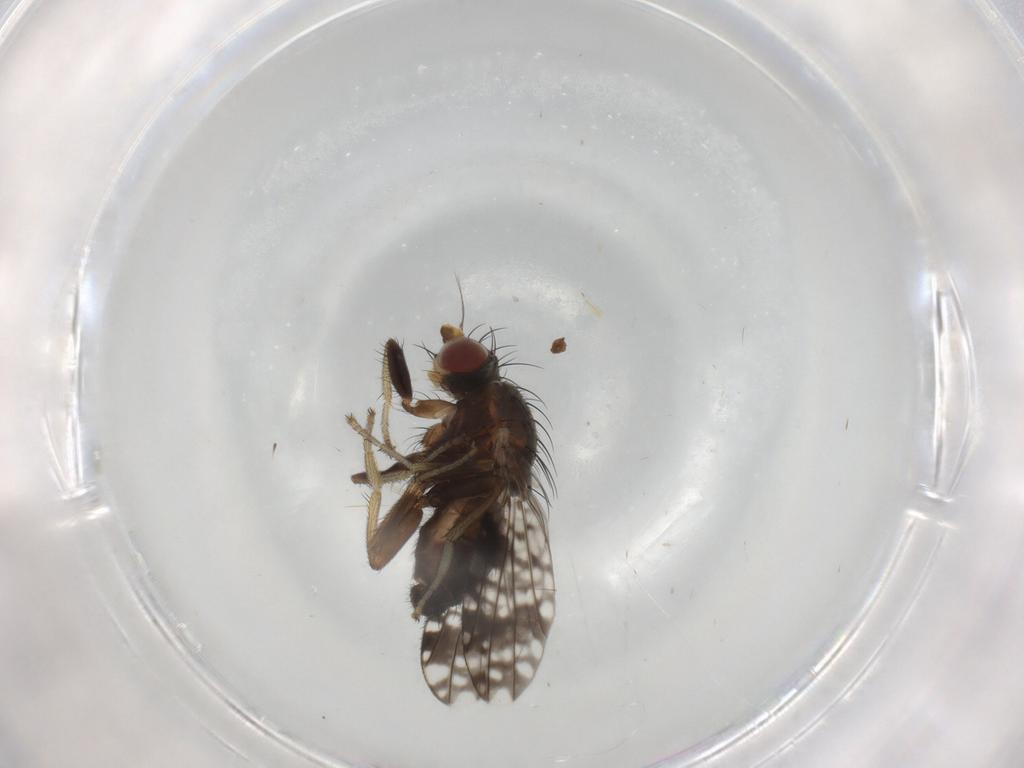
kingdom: Animalia
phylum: Arthropoda
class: Insecta
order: Diptera
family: Tephritidae
